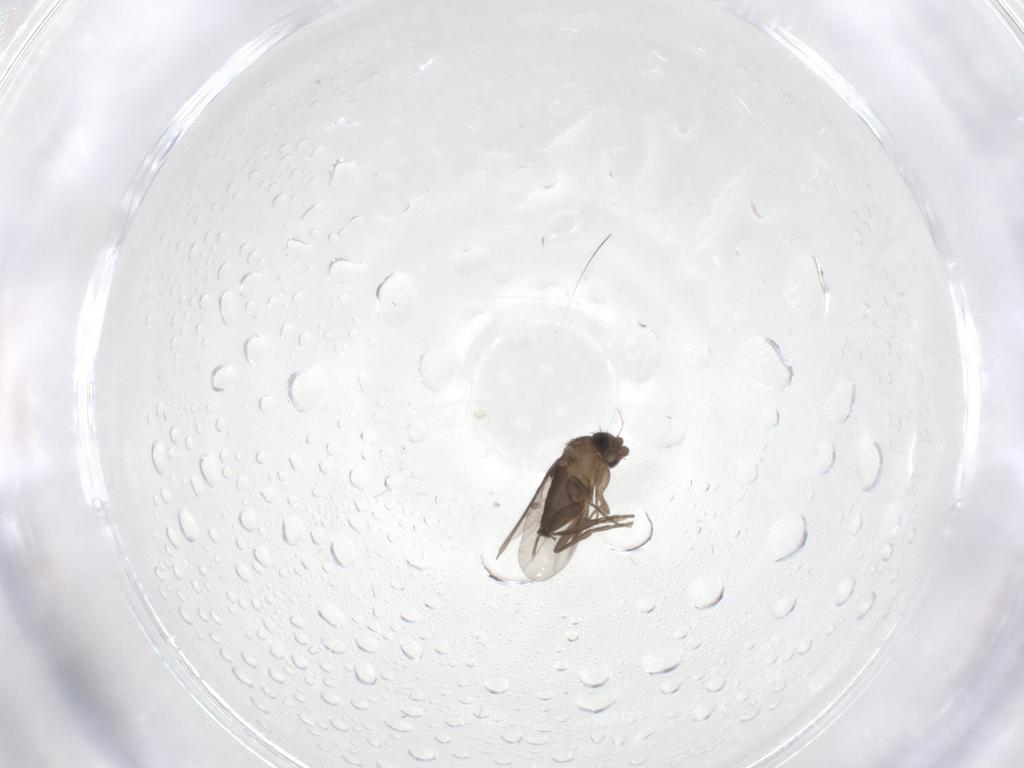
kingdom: Animalia
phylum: Arthropoda
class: Insecta
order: Diptera
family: Phoridae
